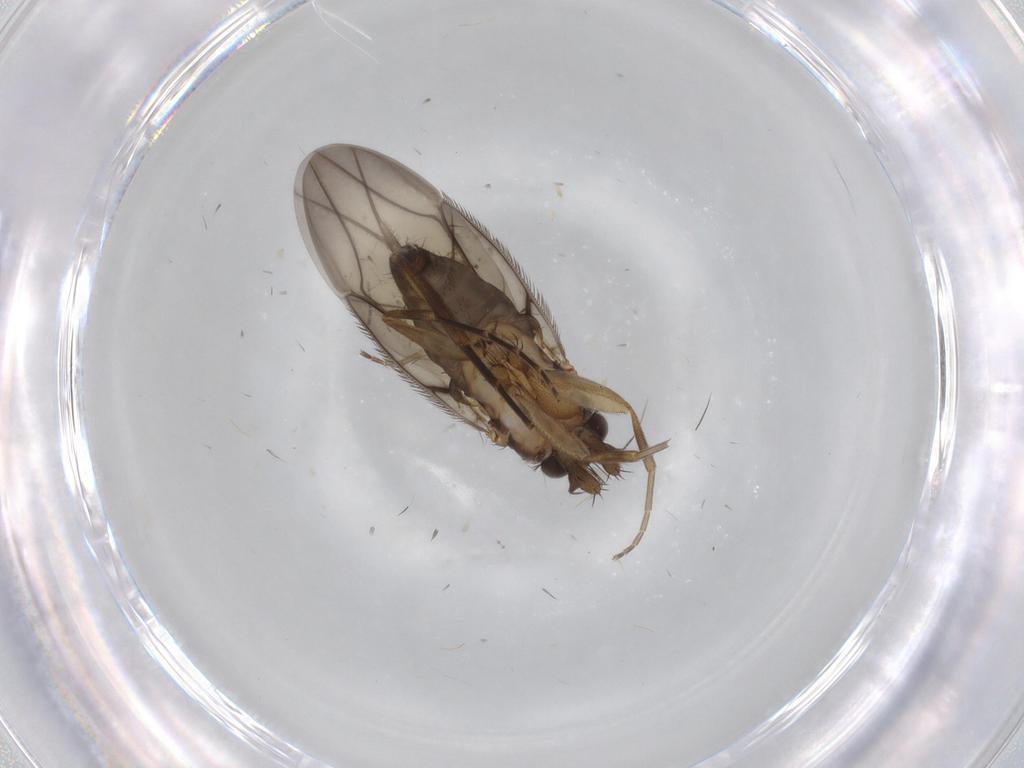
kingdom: Animalia
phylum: Arthropoda
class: Insecta
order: Diptera
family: Phoridae
